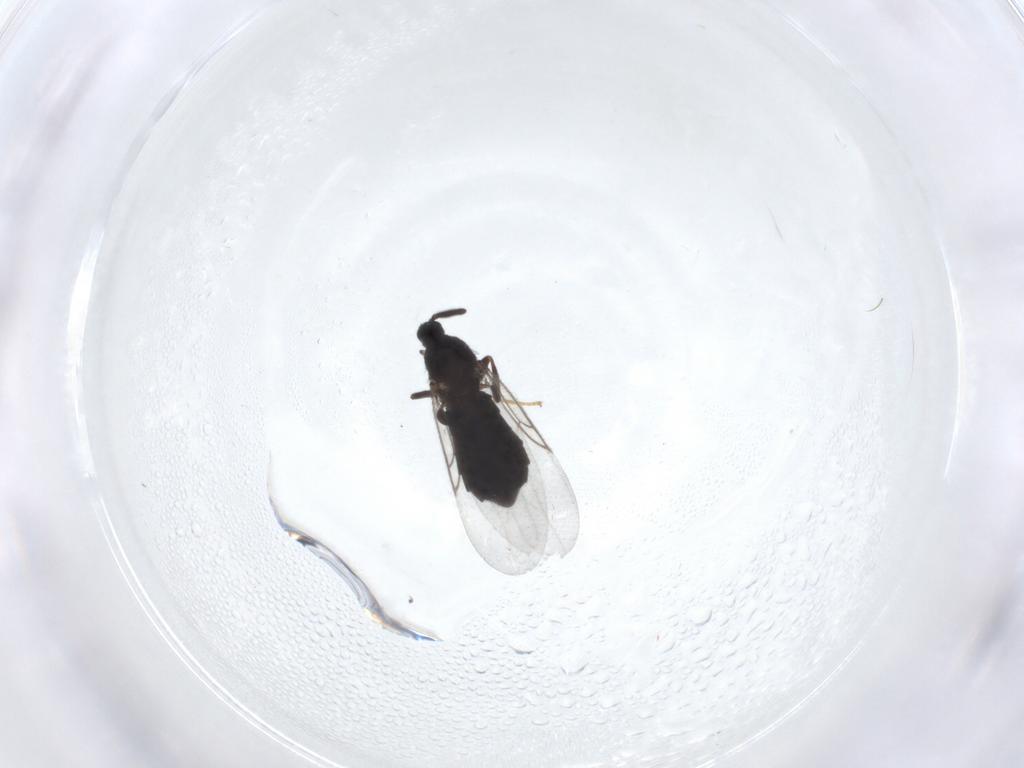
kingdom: Animalia
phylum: Arthropoda
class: Insecta
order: Diptera
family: Scatopsidae
